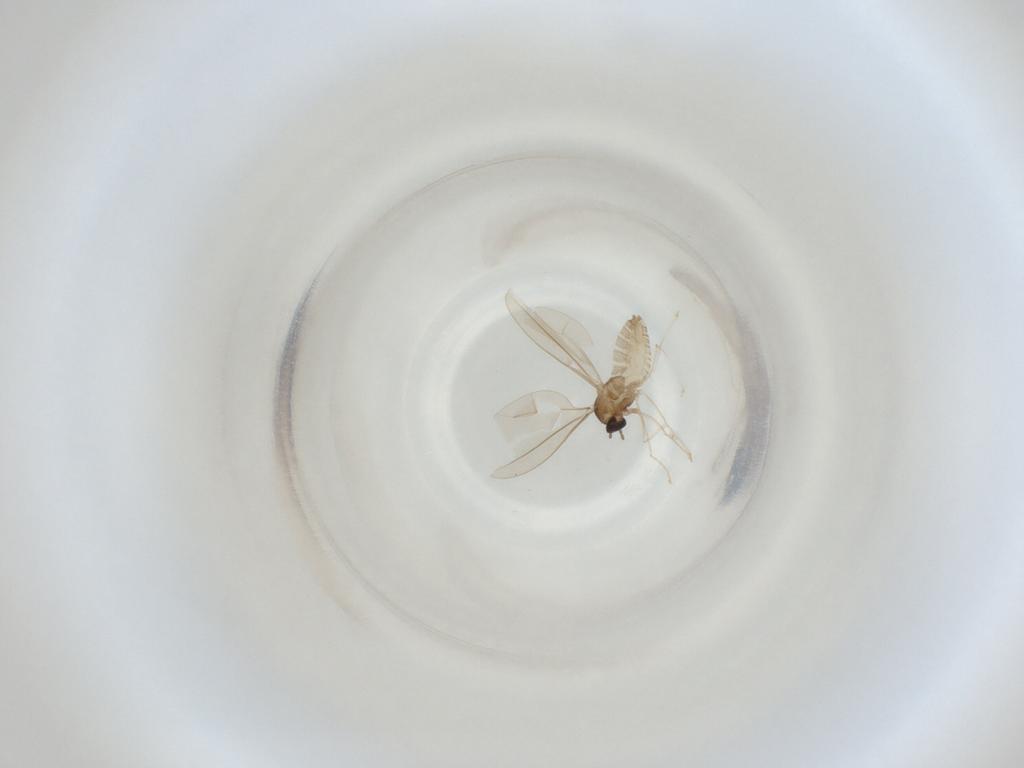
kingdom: Animalia
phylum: Arthropoda
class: Insecta
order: Diptera
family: Cecidomyiidae
